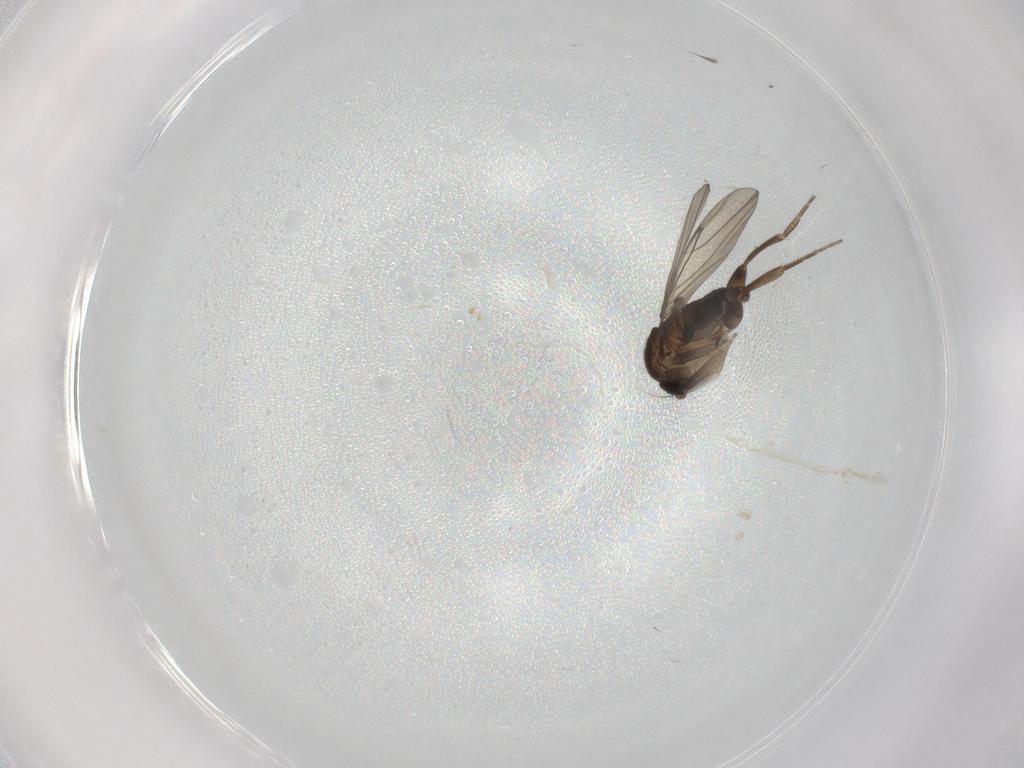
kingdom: Animalia
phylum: Arthropoda
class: Insecta
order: Diptera
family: Phoridae
